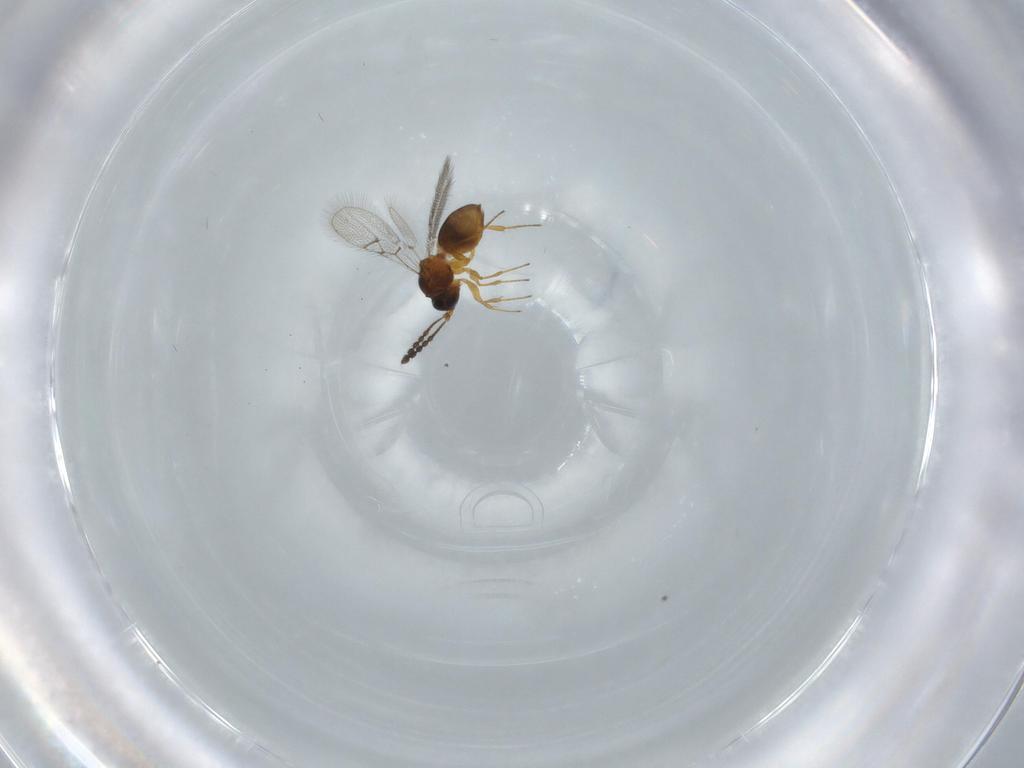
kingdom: Animalia
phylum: Arthropoda
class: Insecta
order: Hymenoptera
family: Figitidae
